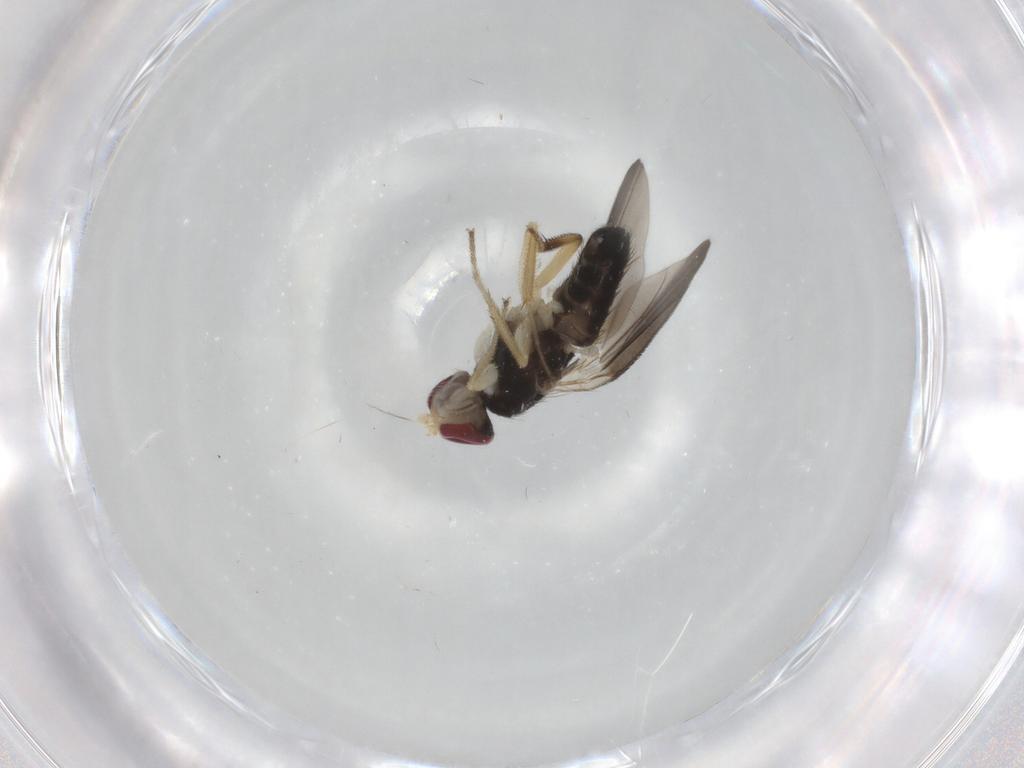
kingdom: Animalia
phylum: Arthropoda
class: Insecta
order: Diptera
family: Clusiidae
